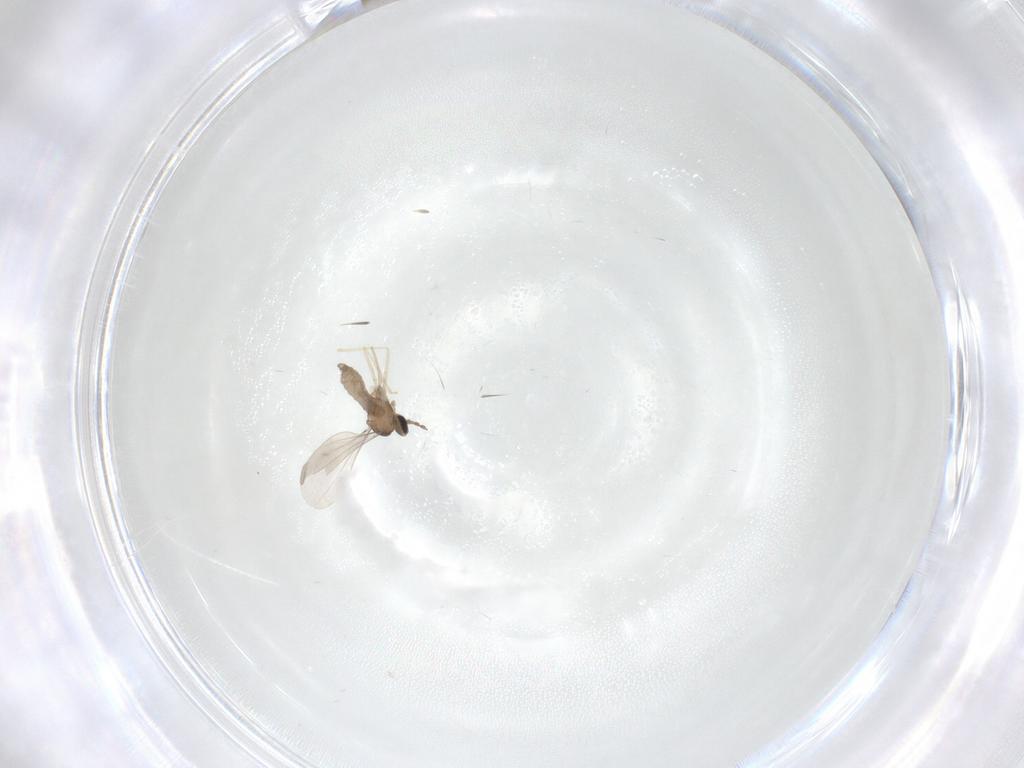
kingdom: Animalia
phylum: Arthropoda
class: Insecta
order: Diptera
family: Cecidomyiidae
